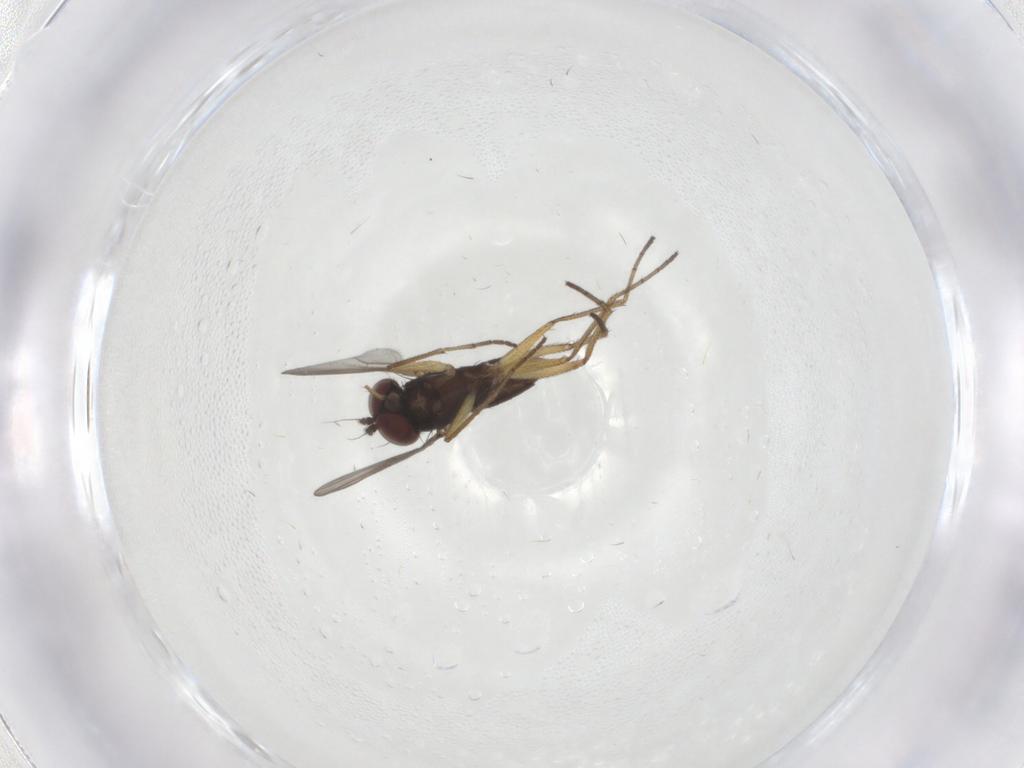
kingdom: Animalia
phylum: Arthropoda
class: Insecta
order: Diptera
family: Dolichopodidae
